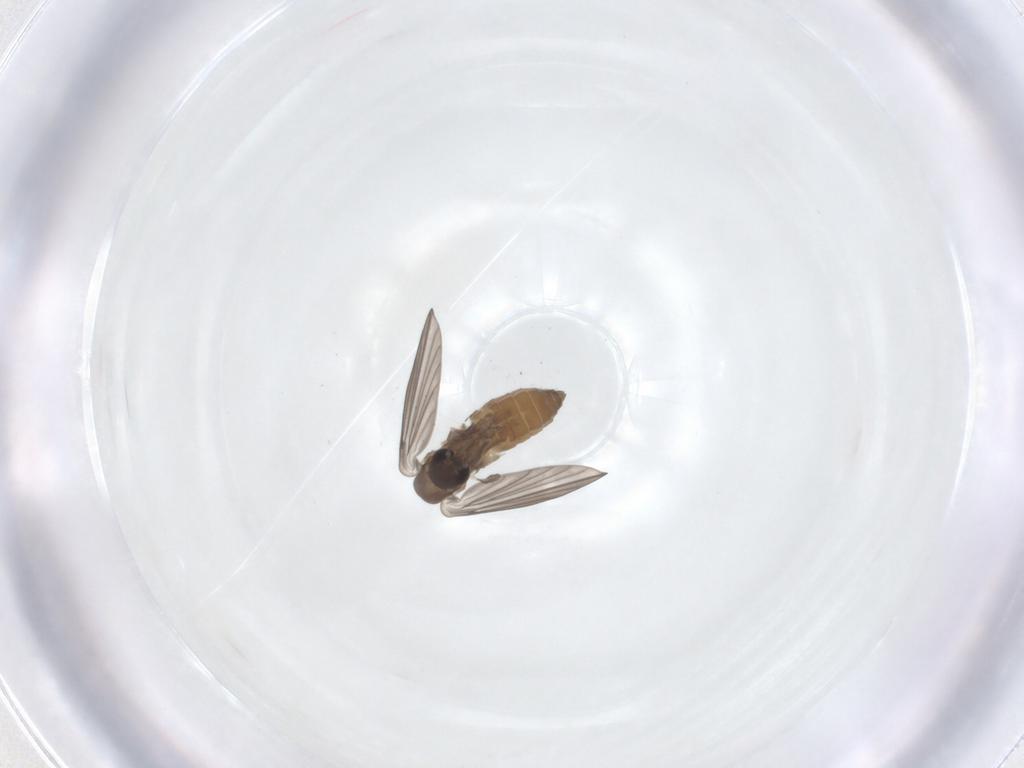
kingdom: Animalia
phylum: Arthropoda
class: Insecta
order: Diptera
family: Psychodidae
